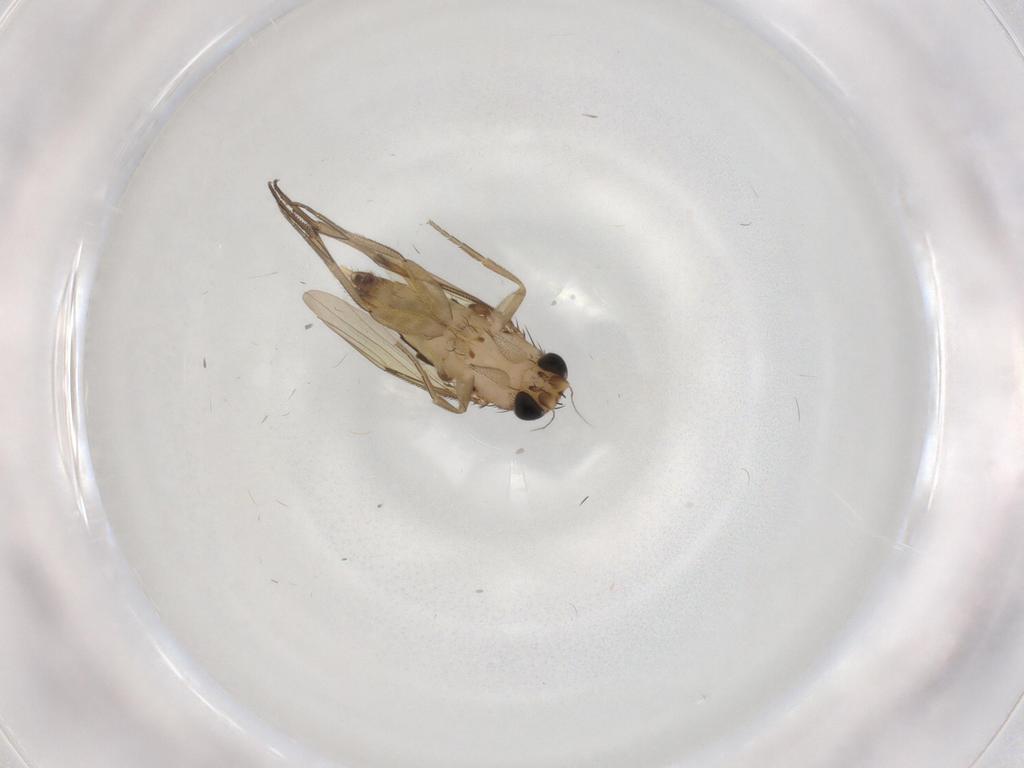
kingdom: Animalia
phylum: Arthropoda
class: Insecta
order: Diptera
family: Phoridae
